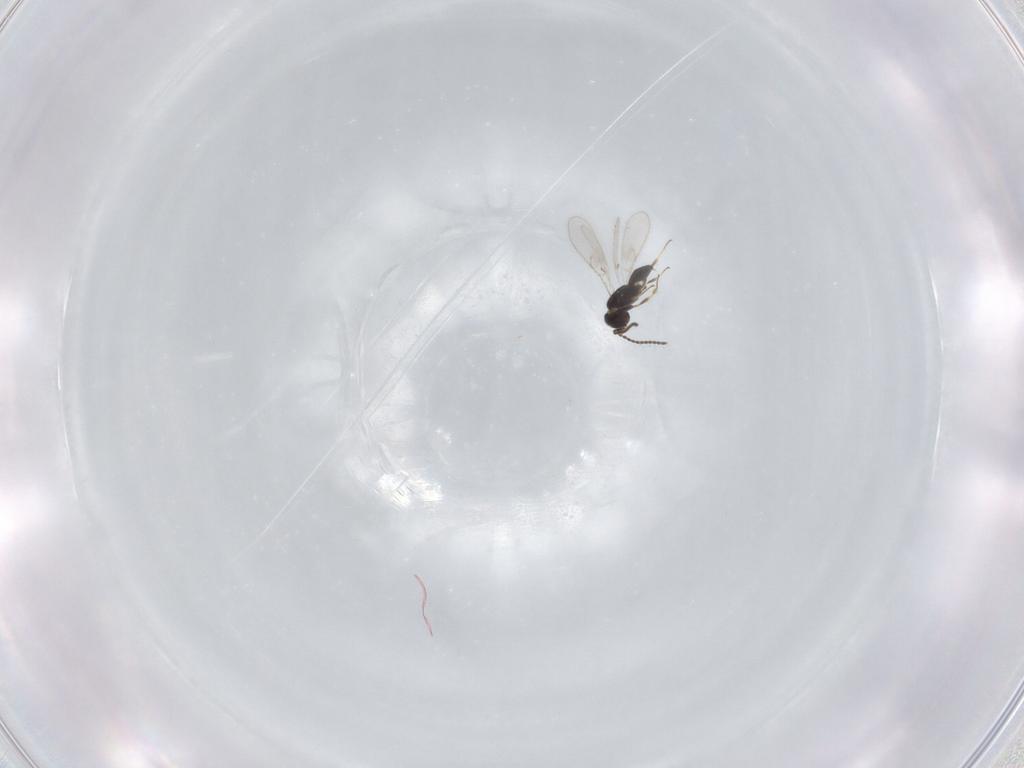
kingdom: Animalia
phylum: Arthropoda
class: Insecta
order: Hymenoptera
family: Scelionidae
